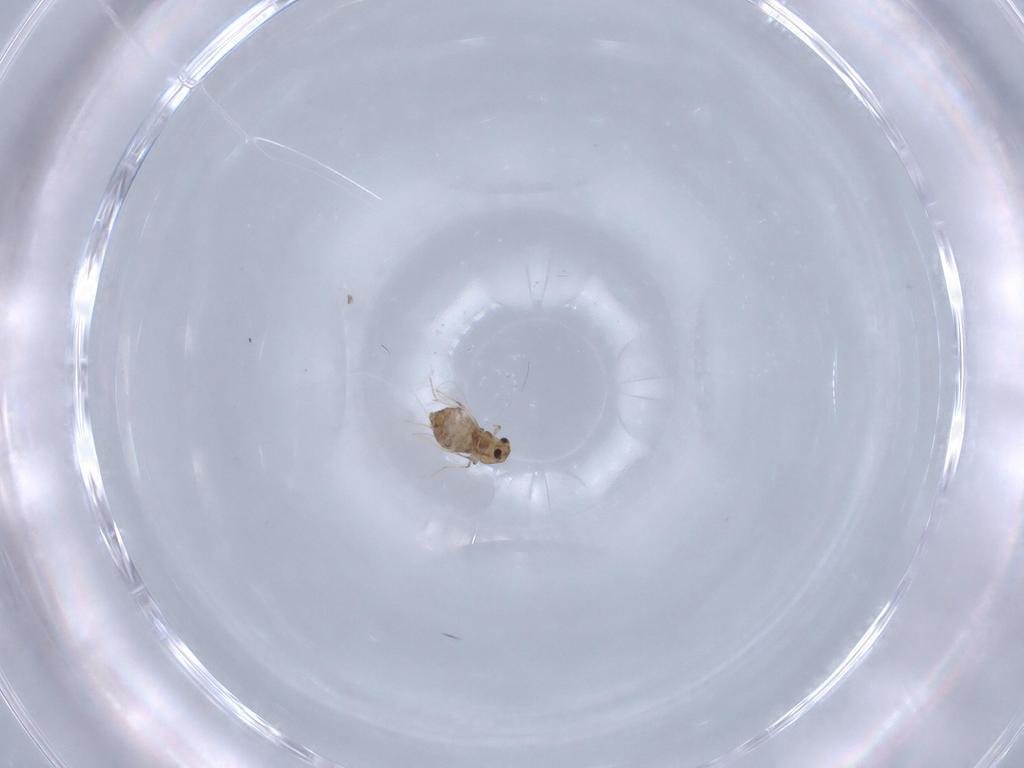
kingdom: Animalia
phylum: Arthropoda
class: Insecta
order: Diptera
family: Chironomidae
